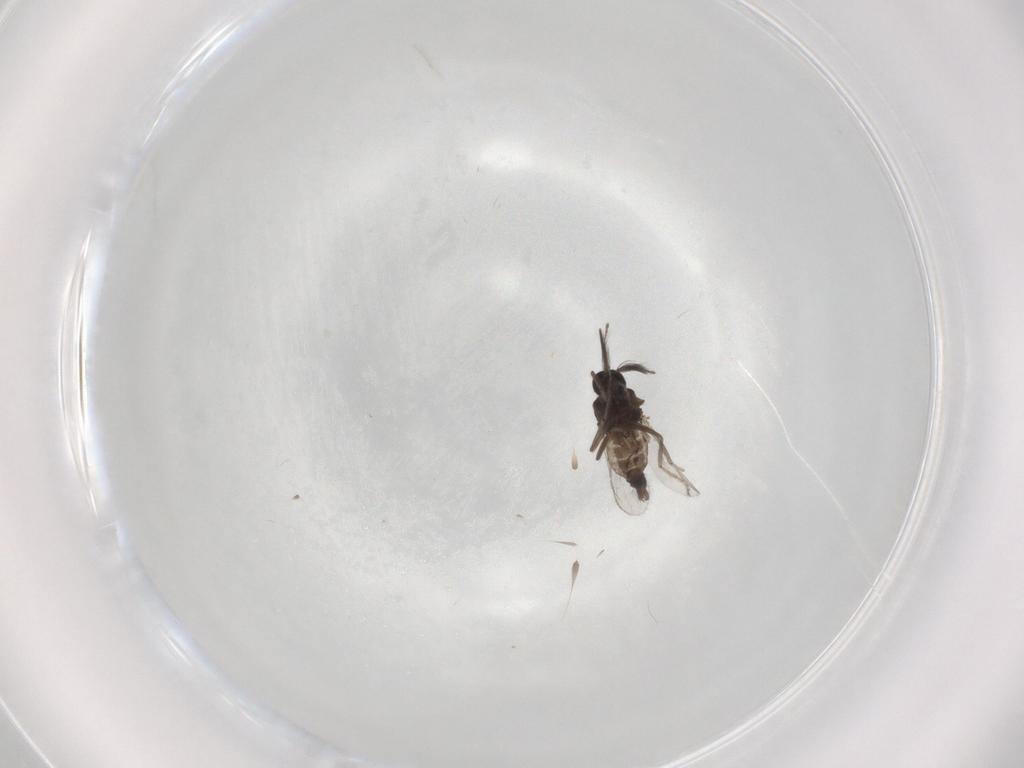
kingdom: Animalia
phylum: Arthropoda
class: Insecta
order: Diptera
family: Ceratopogonidae
